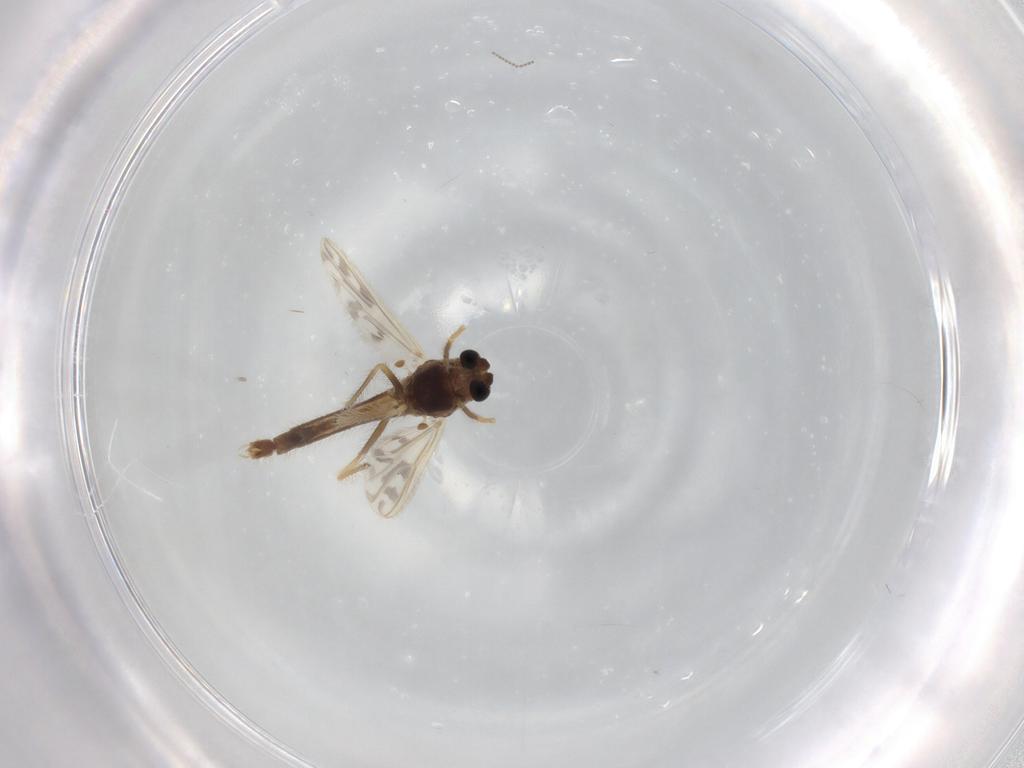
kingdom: Animalia
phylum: Arthropoda
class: Insecta
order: Diptera
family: Chironomidae
